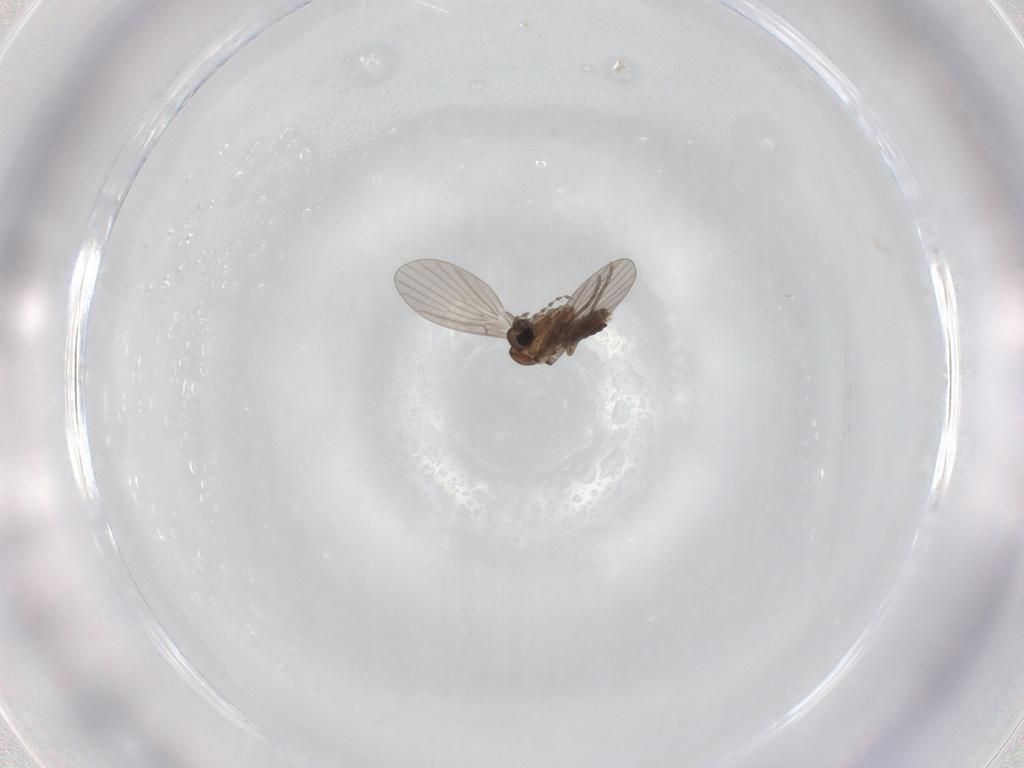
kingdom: Animalia
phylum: Arthropoda
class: Insecta
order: Diptera
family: Psychodidae
